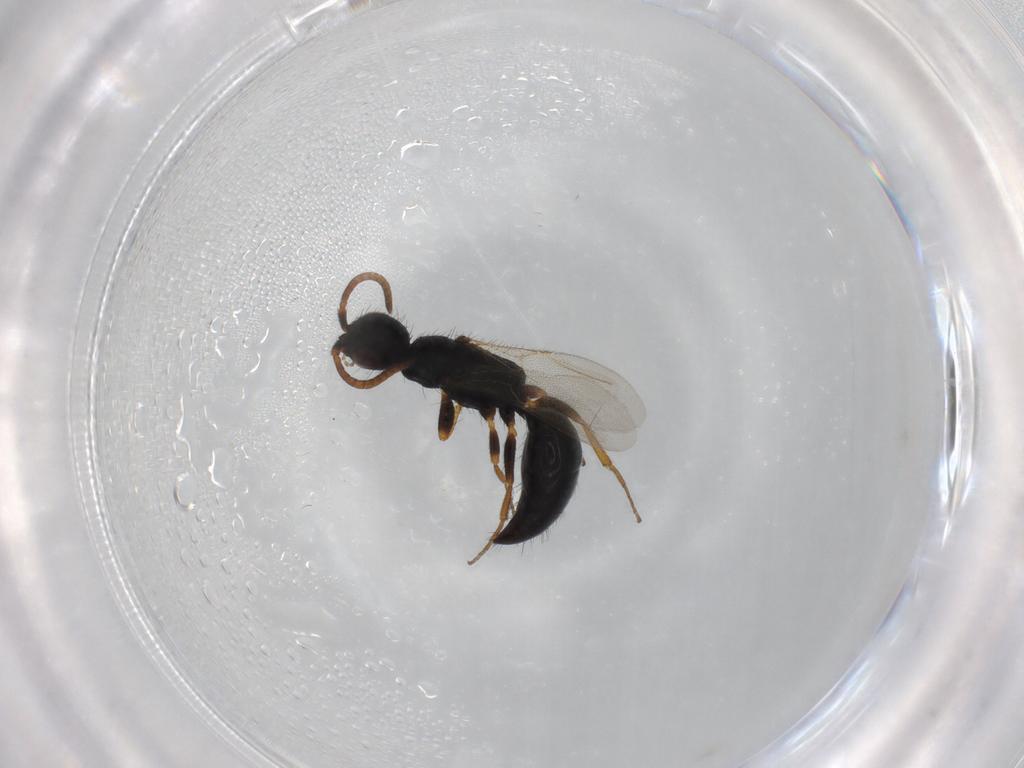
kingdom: Animalia
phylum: Arthropoda
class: Insecta
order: Hymenoptera
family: Bethylidae
